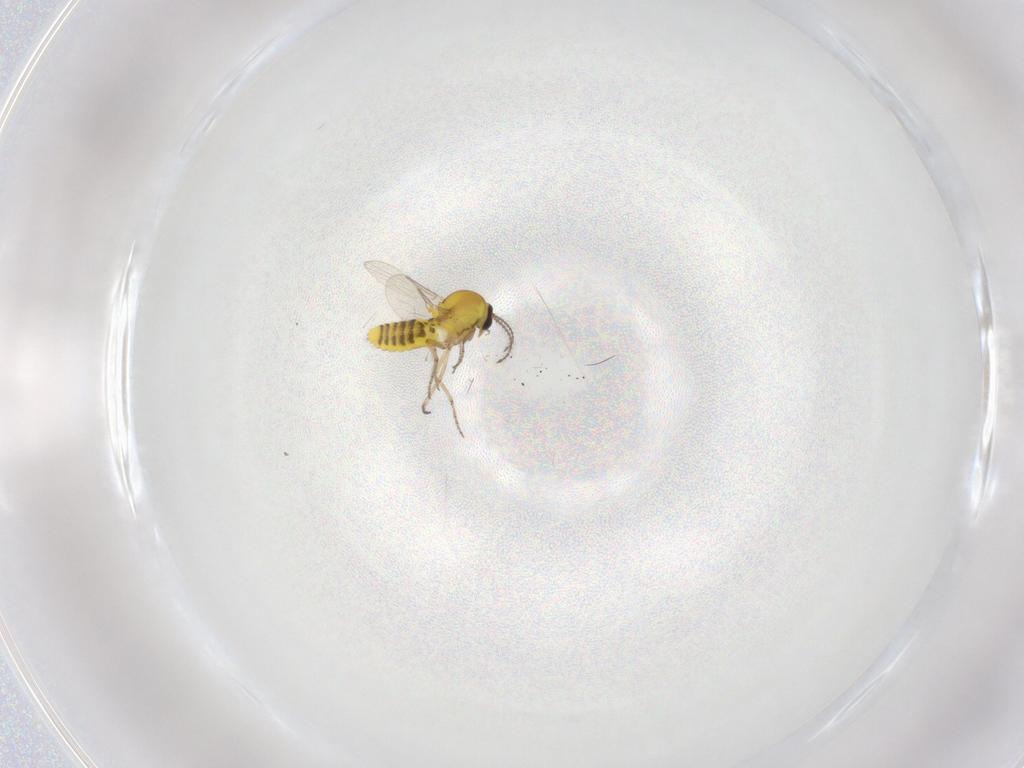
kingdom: Animalia
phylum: Arthropoda
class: Insecta
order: Diptera
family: Ceratopogonidae
